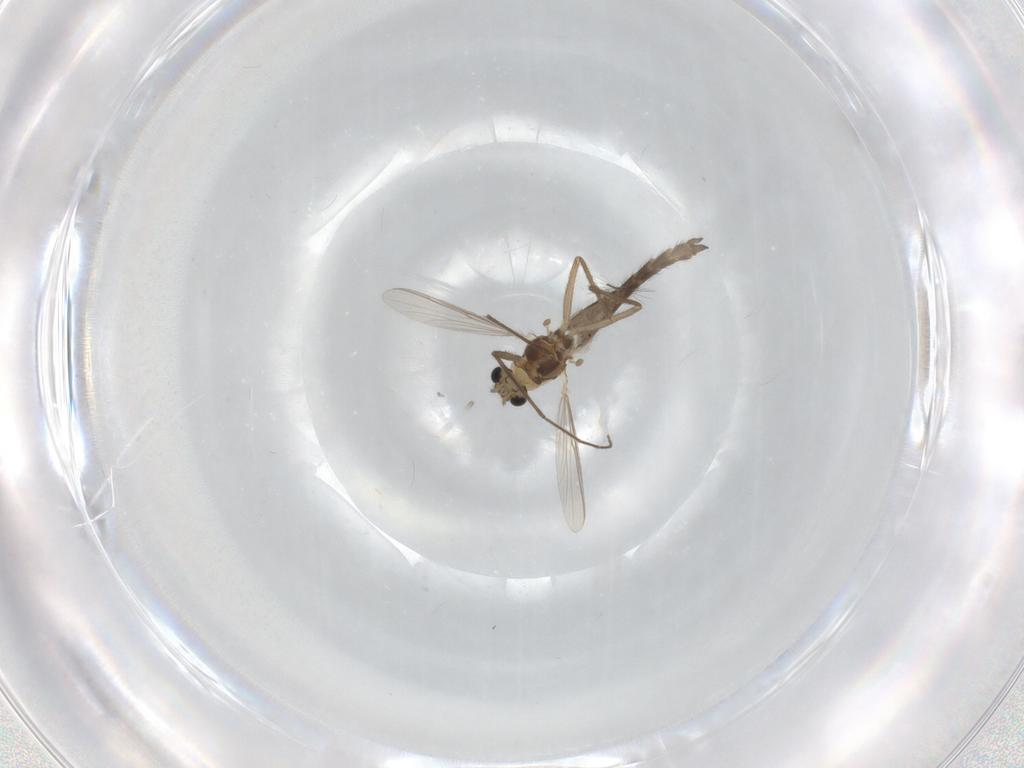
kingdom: Animalia
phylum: Arthropoda
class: Insecta
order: Diptera
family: Chironomidae
